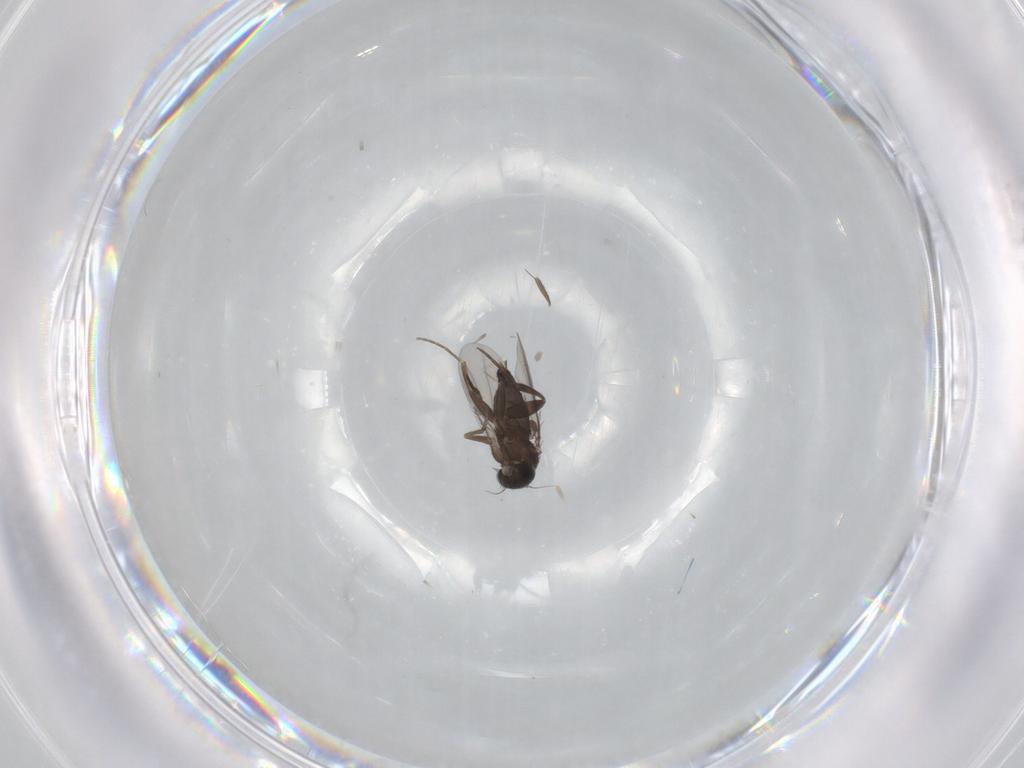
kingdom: Animalia
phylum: Arthropoda
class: Insecta
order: Diptera
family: Phoridae
